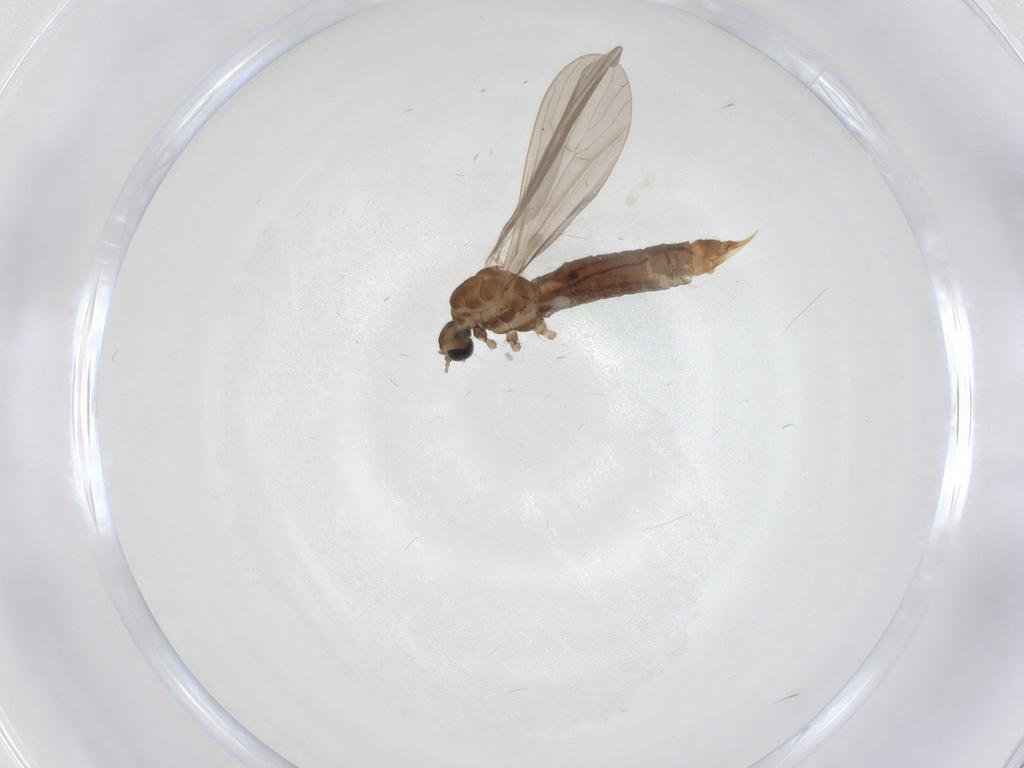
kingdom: Animalia
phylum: Arthropoda
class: Insecta
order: Diptera
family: Limoniidae
